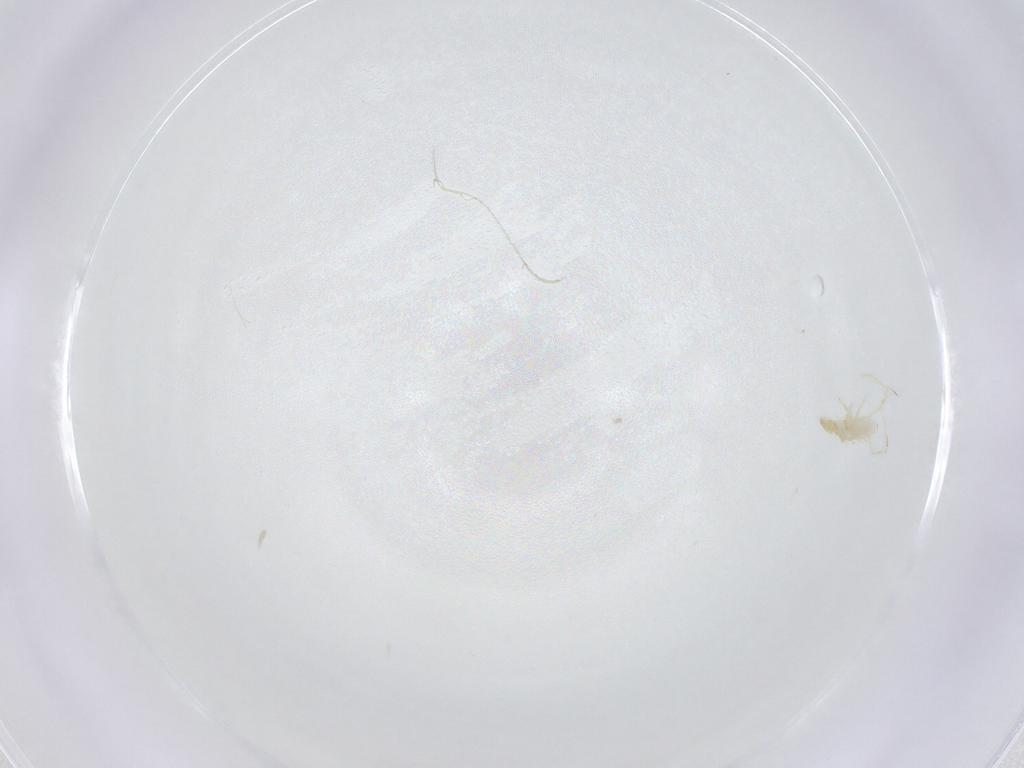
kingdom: Animalia
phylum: Arthropoda
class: Arachnida
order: Trombidiformes
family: Erythraeidae
